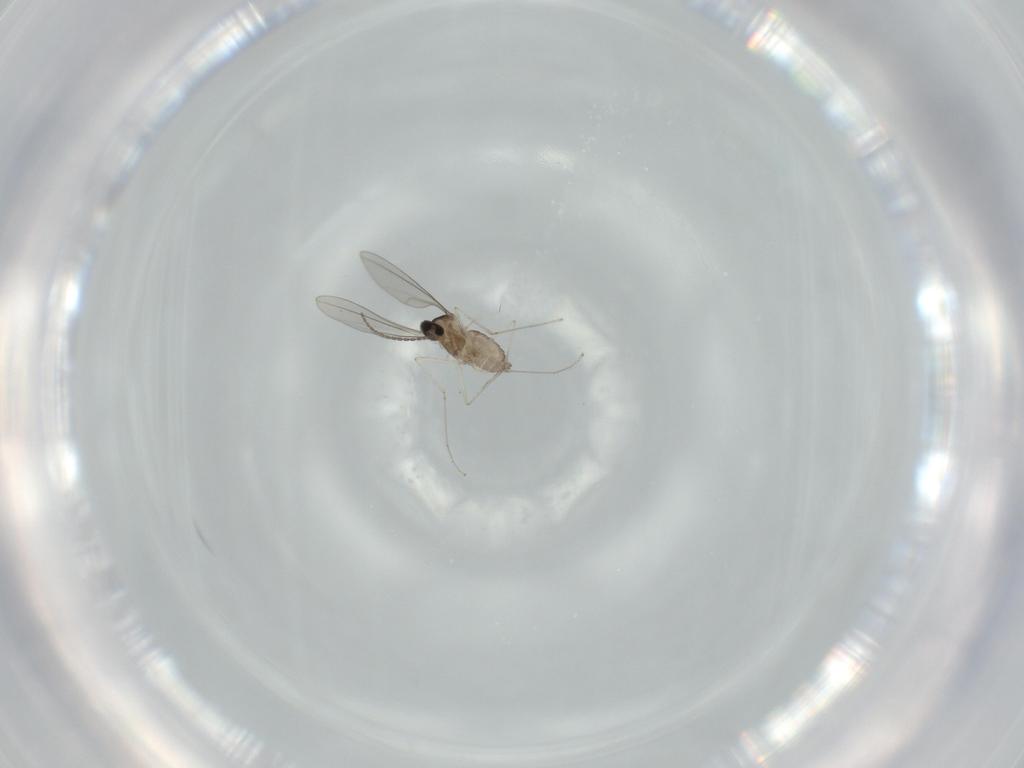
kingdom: Animalia
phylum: Arthropoda
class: Insecta
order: Diptera
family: Cecidomyiidae
